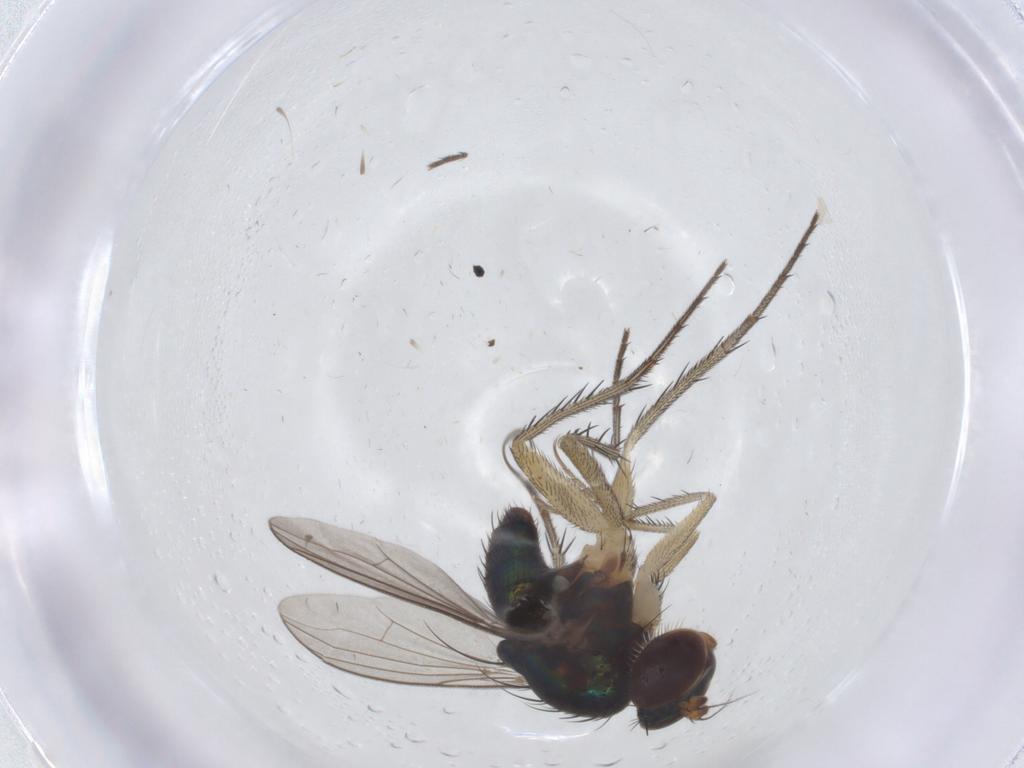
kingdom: Animalia
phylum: Arthropoda
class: Insecta
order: Diptera
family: Dolichopodidae
